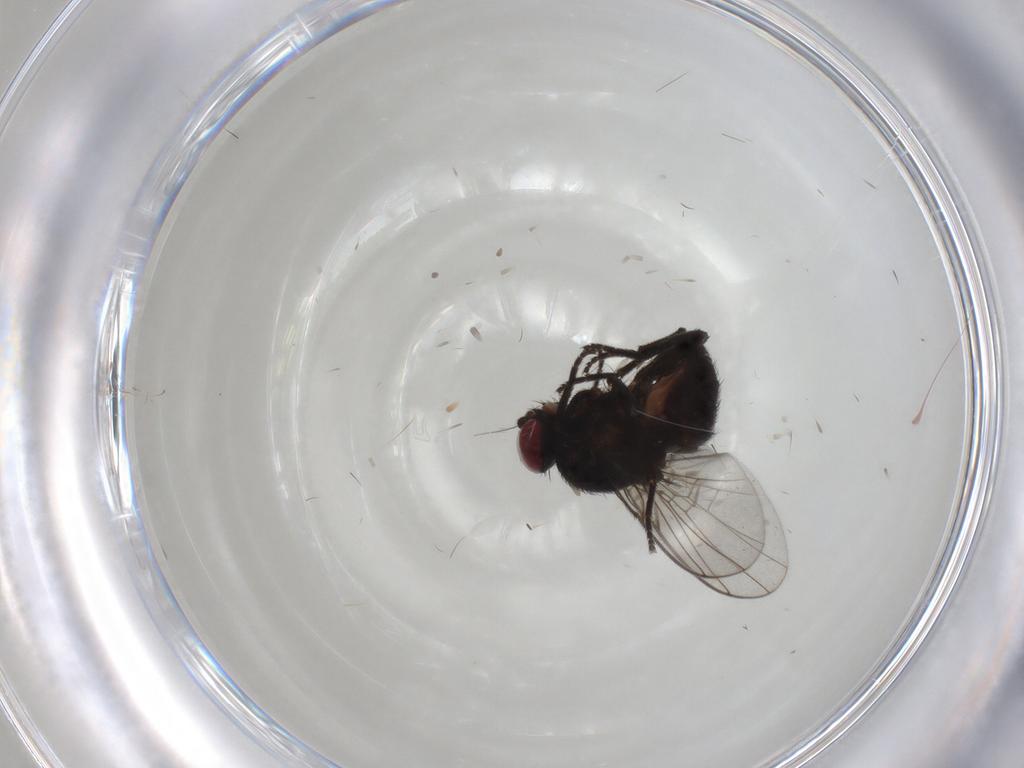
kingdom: Animalia
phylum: Arthropoda
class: Insecta
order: Diptera
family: Agromyzidae
